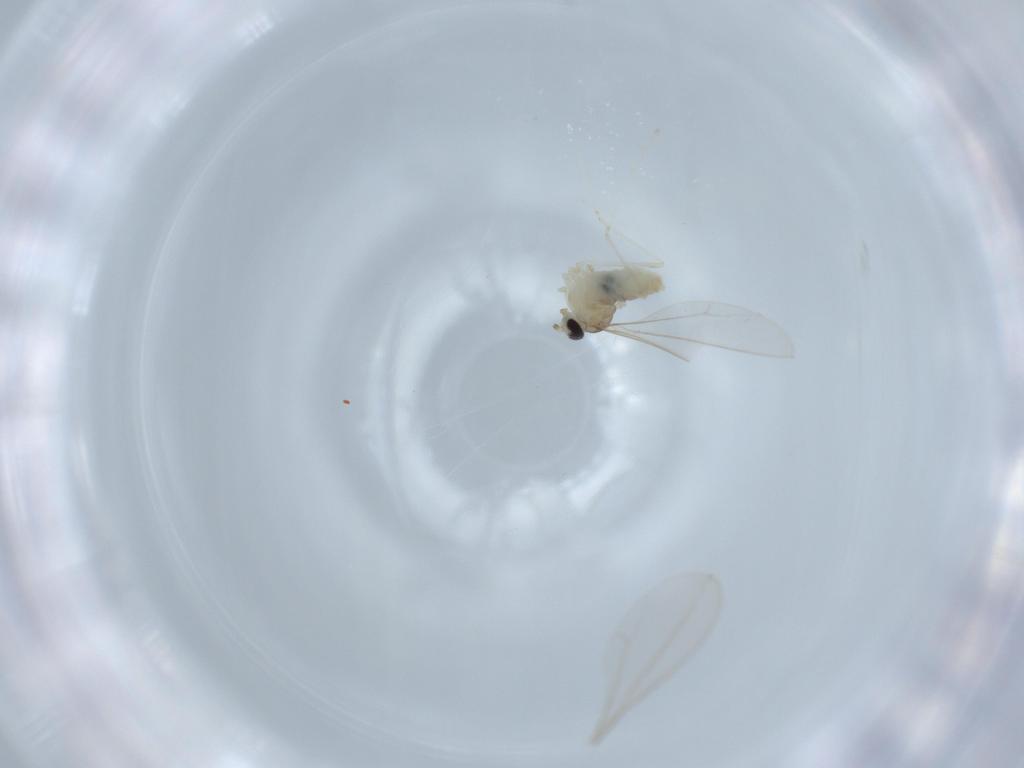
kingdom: Animalia
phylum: Arthropoda
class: Insecta
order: Diptera
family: Cecidomyiidae
